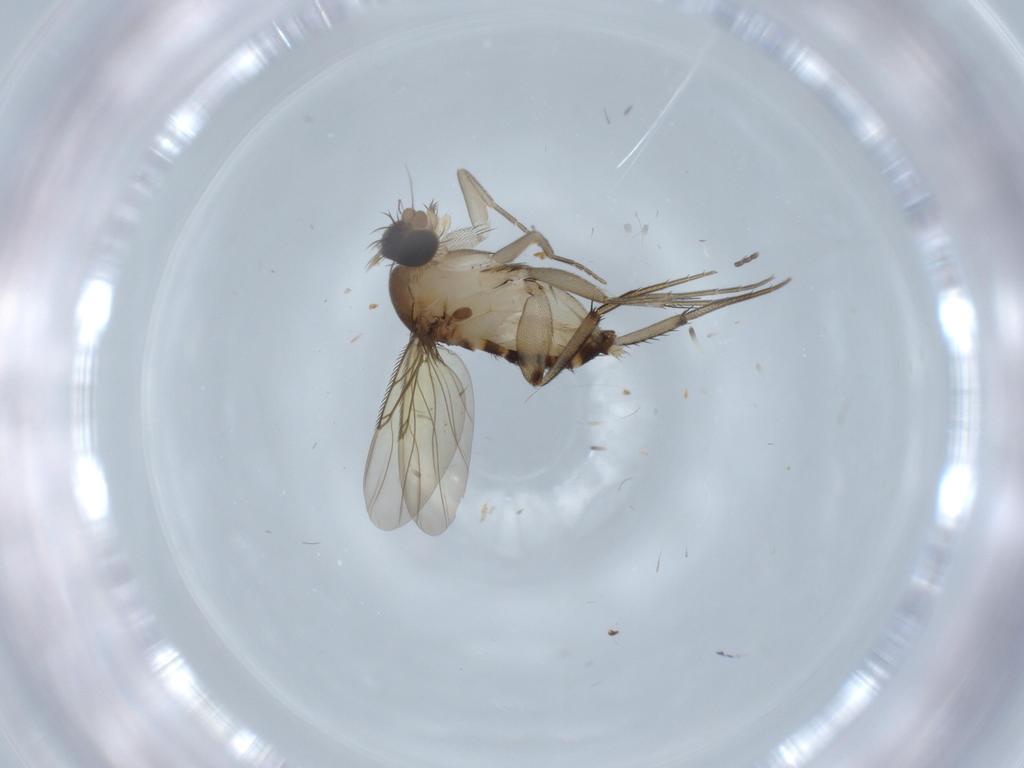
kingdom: Animalia
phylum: Arthropoda
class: Insecta
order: Diptera
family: Phoridae
